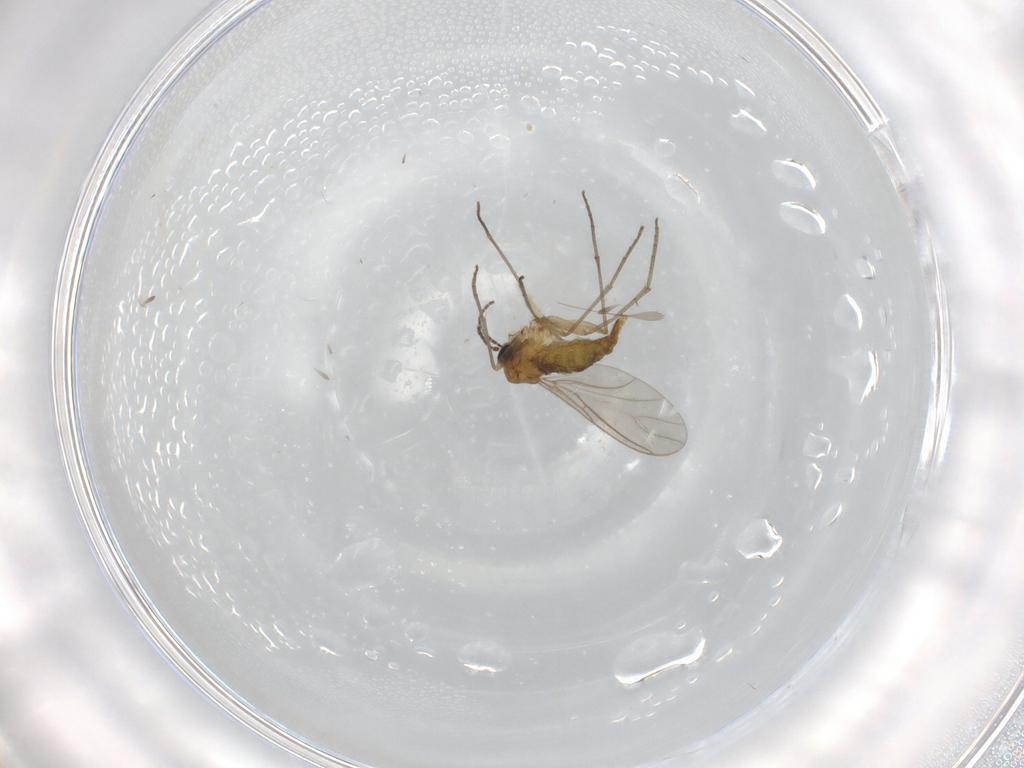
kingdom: Animalia
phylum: Arthropoda
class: Insecta
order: Diptera
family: Sciaridae
